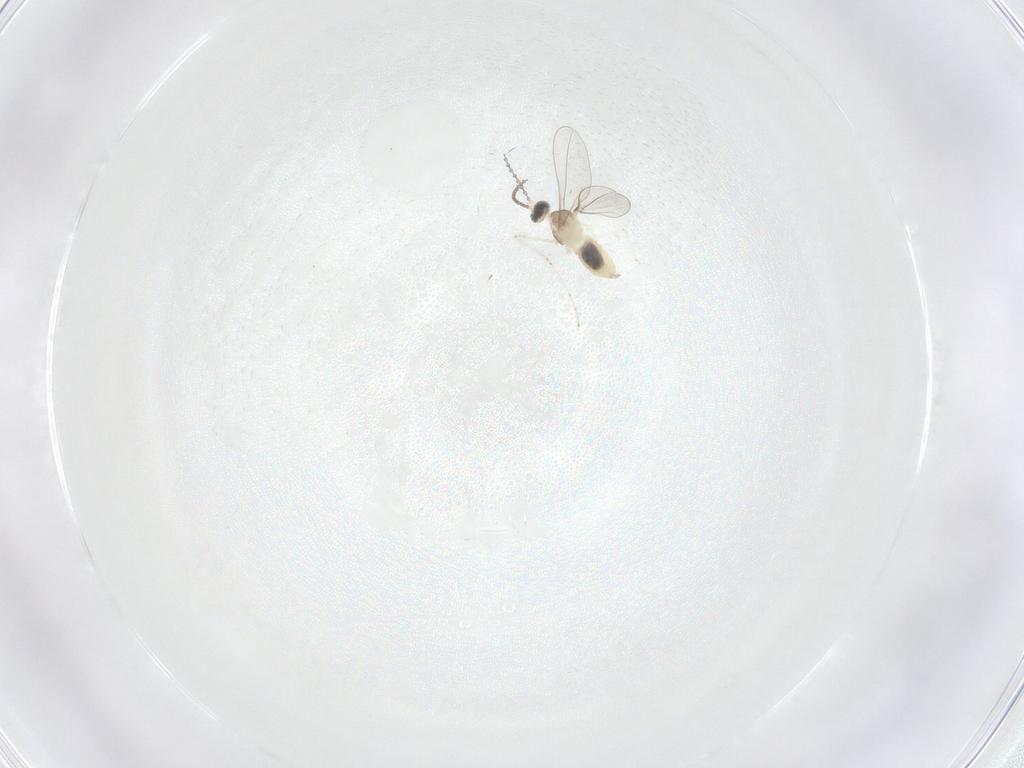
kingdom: Animalia
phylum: Arthropoda
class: Insecta
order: Diptera
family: Cecidomyiidae
